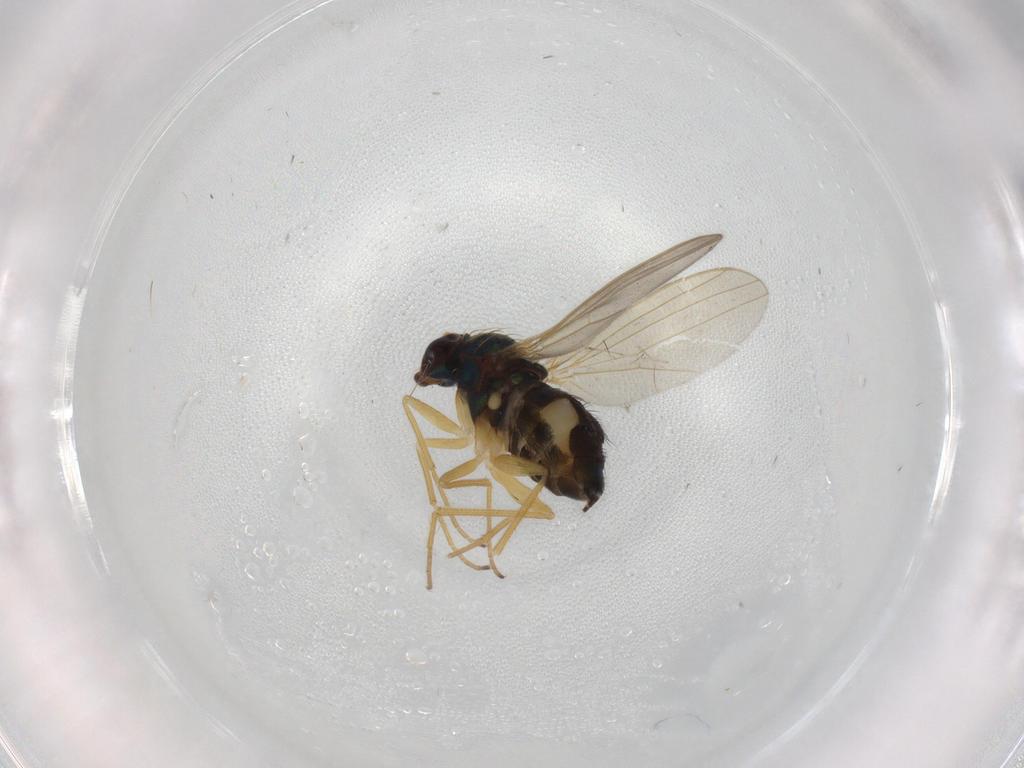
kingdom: Animalia
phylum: Arthropoda
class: Insecta
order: Diptera
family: Dolichopodidae
